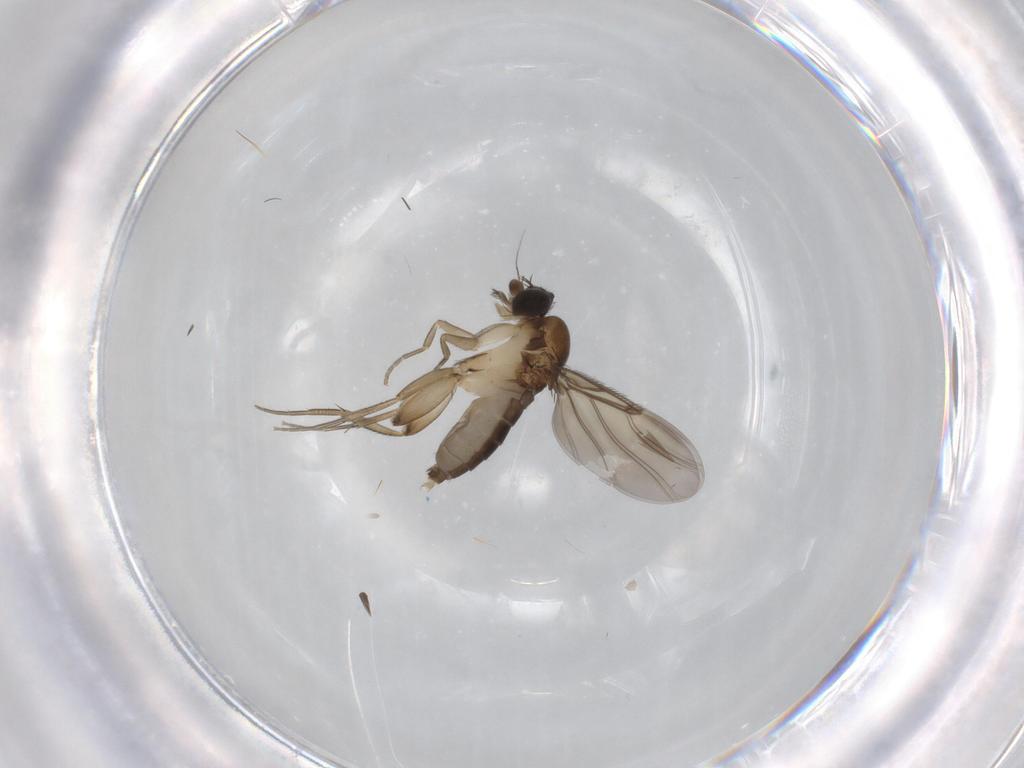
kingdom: Animalia
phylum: Arthropoda
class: Insecta
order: Diptera
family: Phoridae
